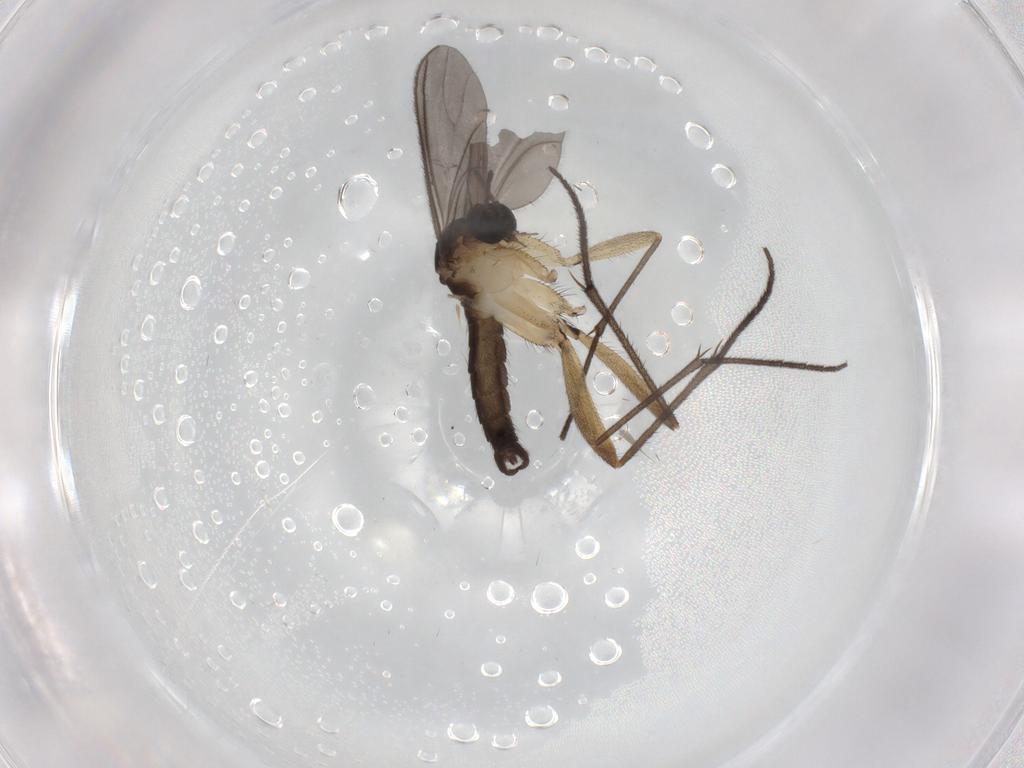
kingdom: Animalia
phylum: Arthropoda
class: Insecta
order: Diptera
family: Sciaridae
